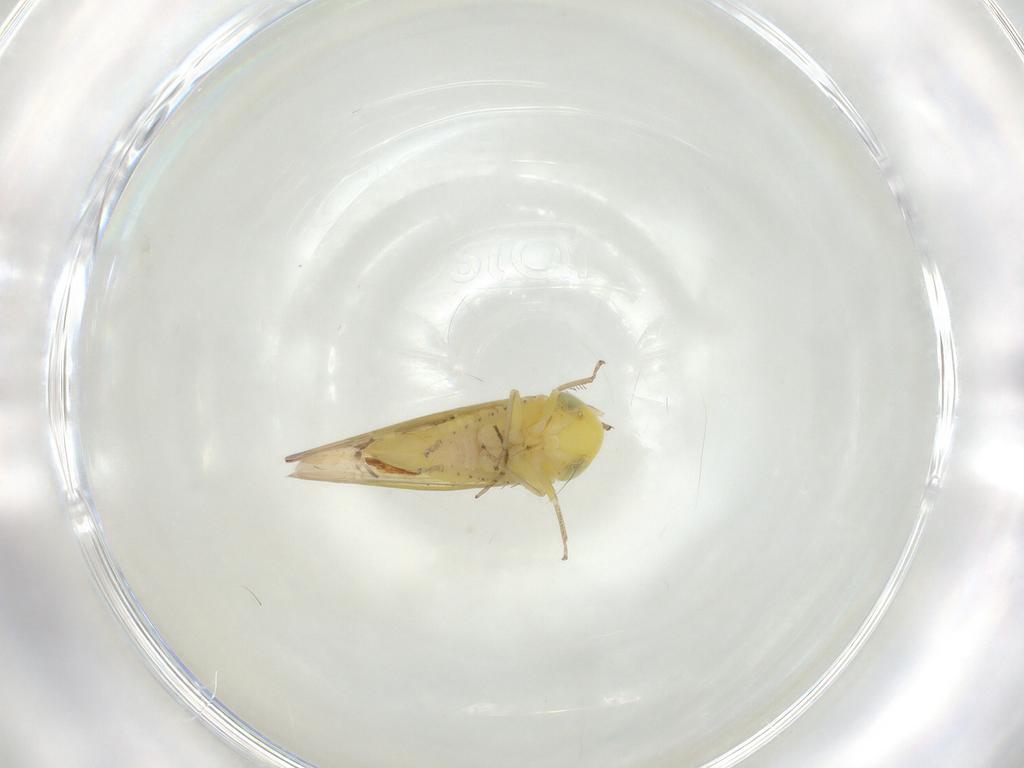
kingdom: Animalia
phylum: Arthropoda
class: Insecta
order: Hemiptera
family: Cicadellidae
